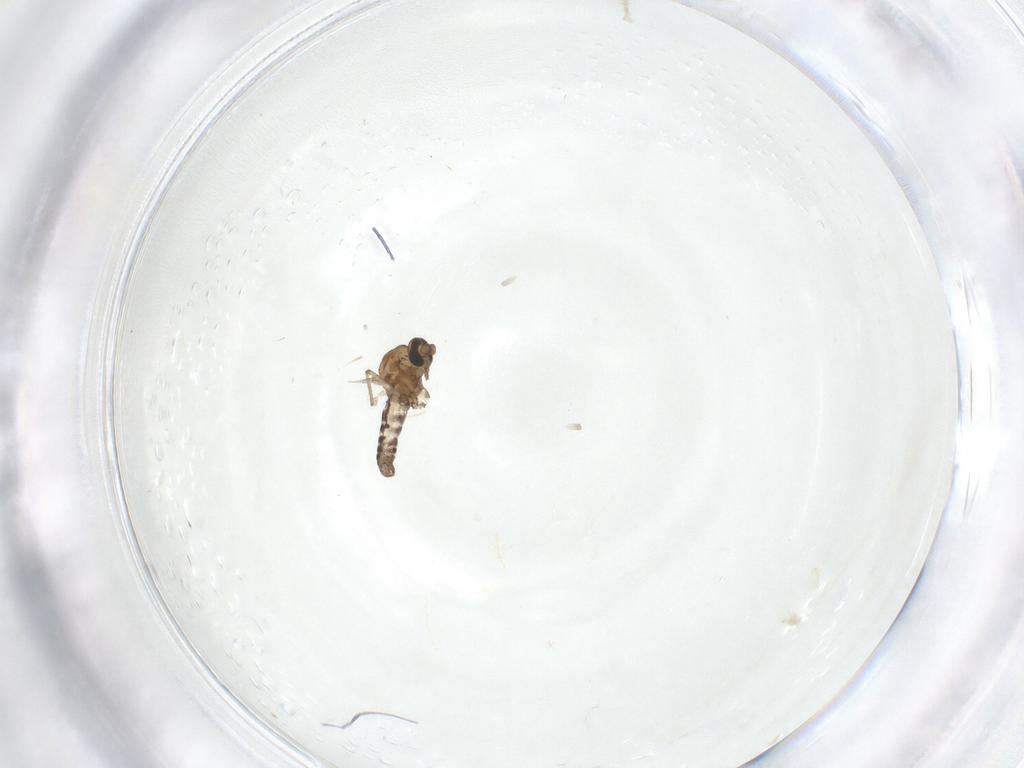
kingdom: Animalia
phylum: Arthropoda
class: Insecta
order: Diptera
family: Ceratopogonidae
